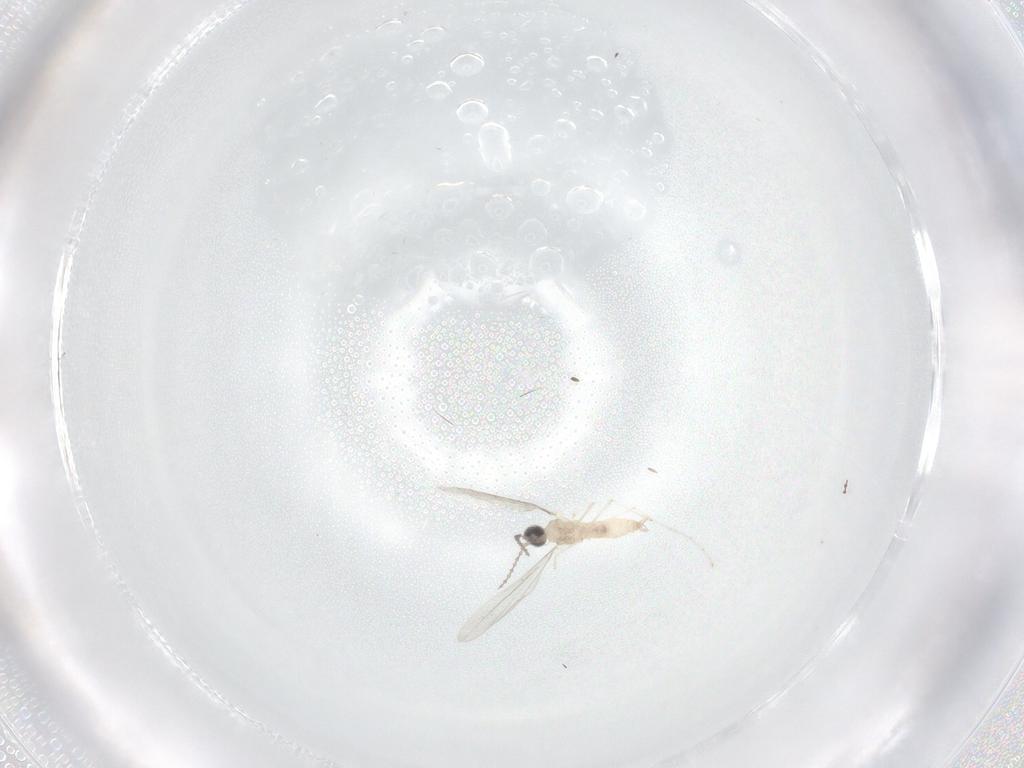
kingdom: Animalia
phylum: Arthropoda
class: Insecta
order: Diptera
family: Cecidomyiidae
